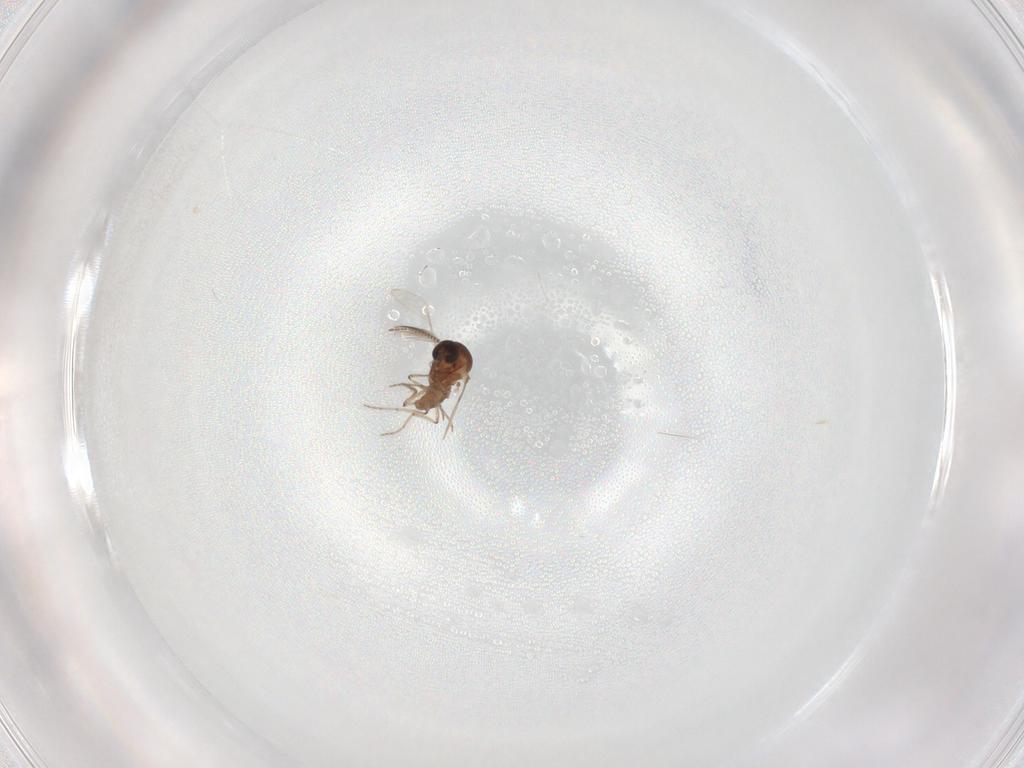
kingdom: Animalia
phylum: Arthropoda
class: Insecta
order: Diptera
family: Ceratopogonidae
